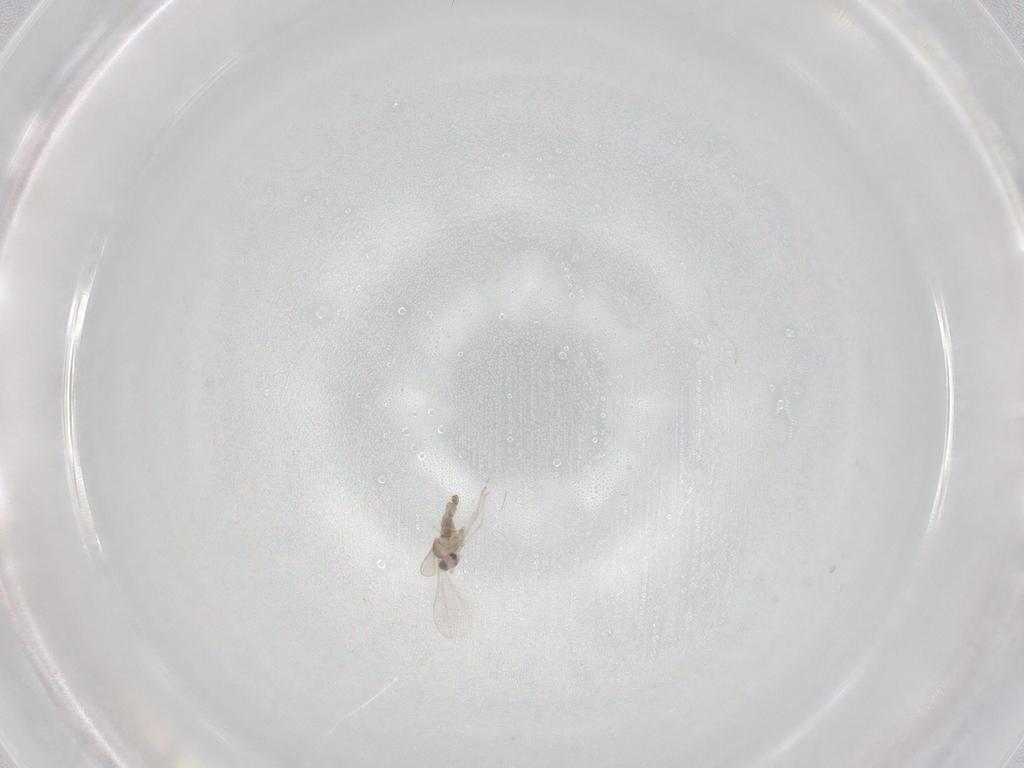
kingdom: Animalia
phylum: Arthropoda
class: Insecta
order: Diptera
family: Cecidomyiidae
